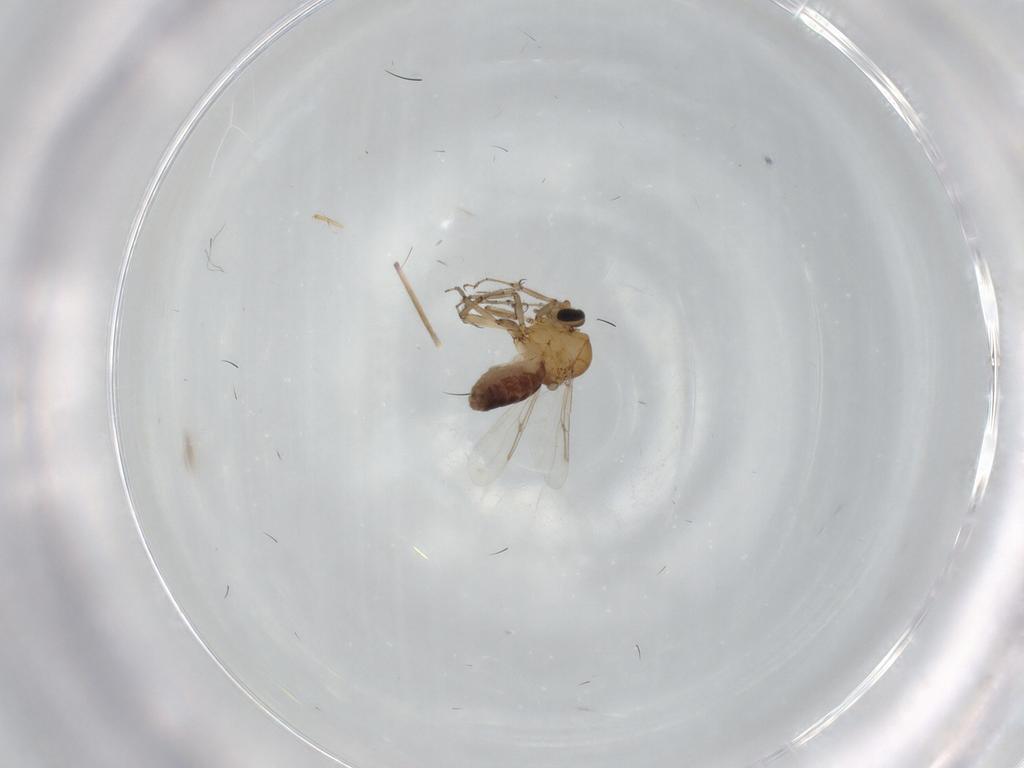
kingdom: Animalia
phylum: Arthropoda
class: Insecta
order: Diptera
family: Ceratopogonidae
